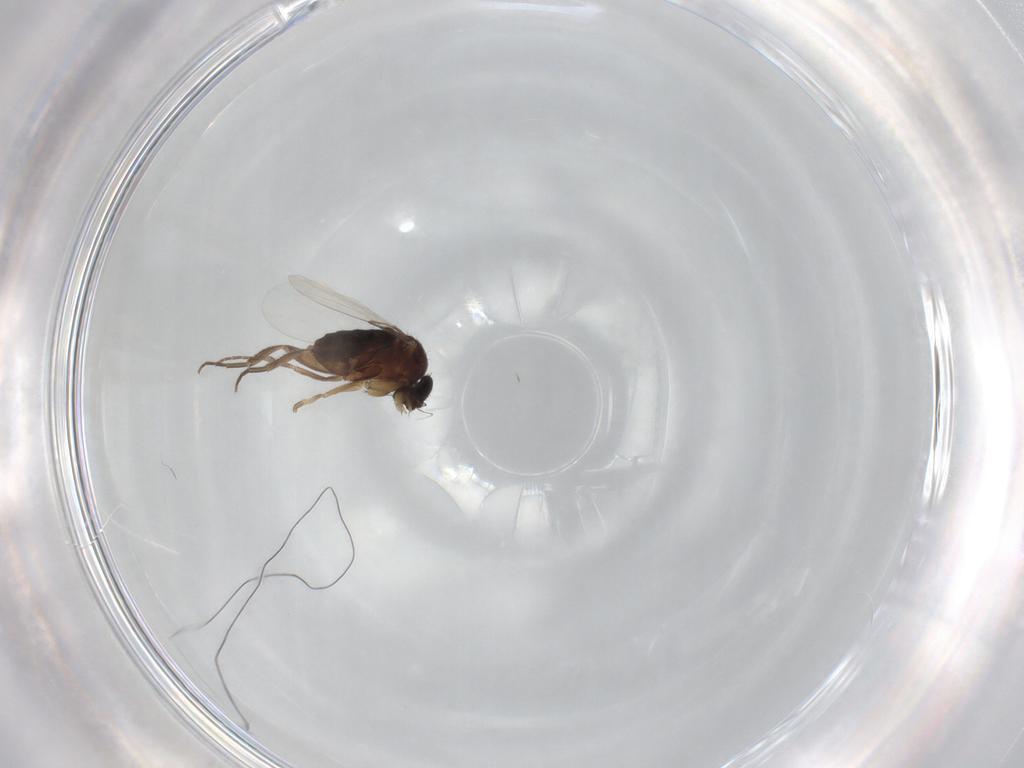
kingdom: Animalia
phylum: Arthropoda
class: Insecta
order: Diptera
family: Phoridae
